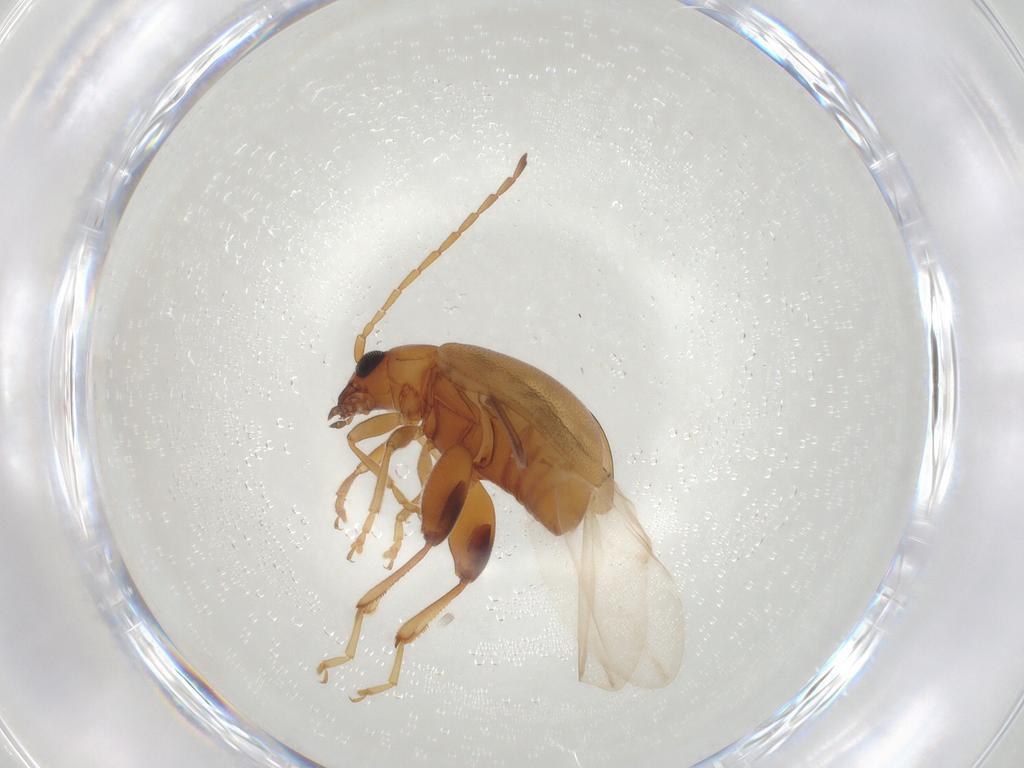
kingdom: Animalia
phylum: Arthropoda
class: Insecta
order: Coleoptera
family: Chrysomelidae
